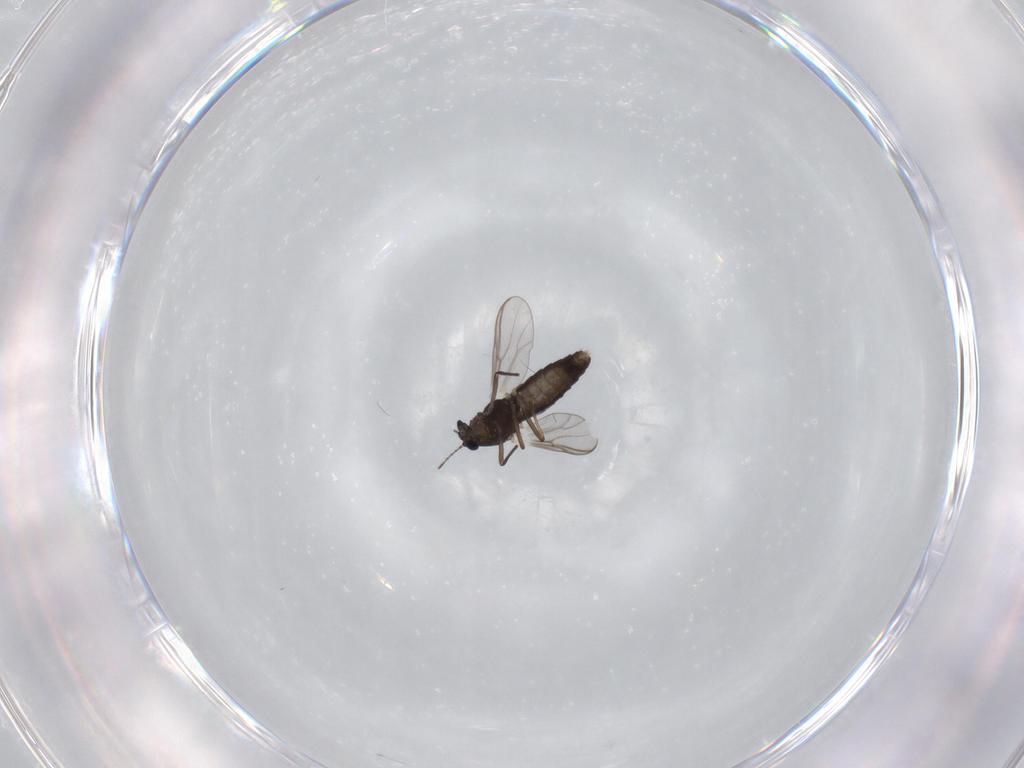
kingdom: Animalia
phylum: Arthropoda
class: Insecta
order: Diptera
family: Chironomidae
